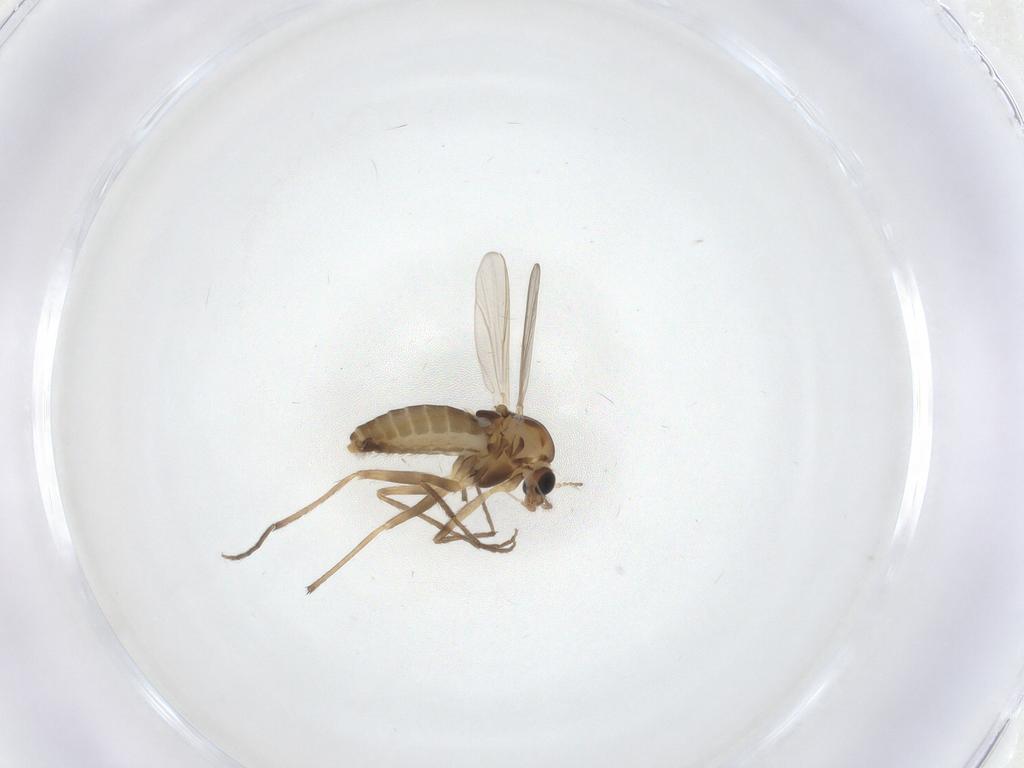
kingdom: Animalia
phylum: Arthropoda
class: Insecta
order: Diptera
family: Chironomidae
